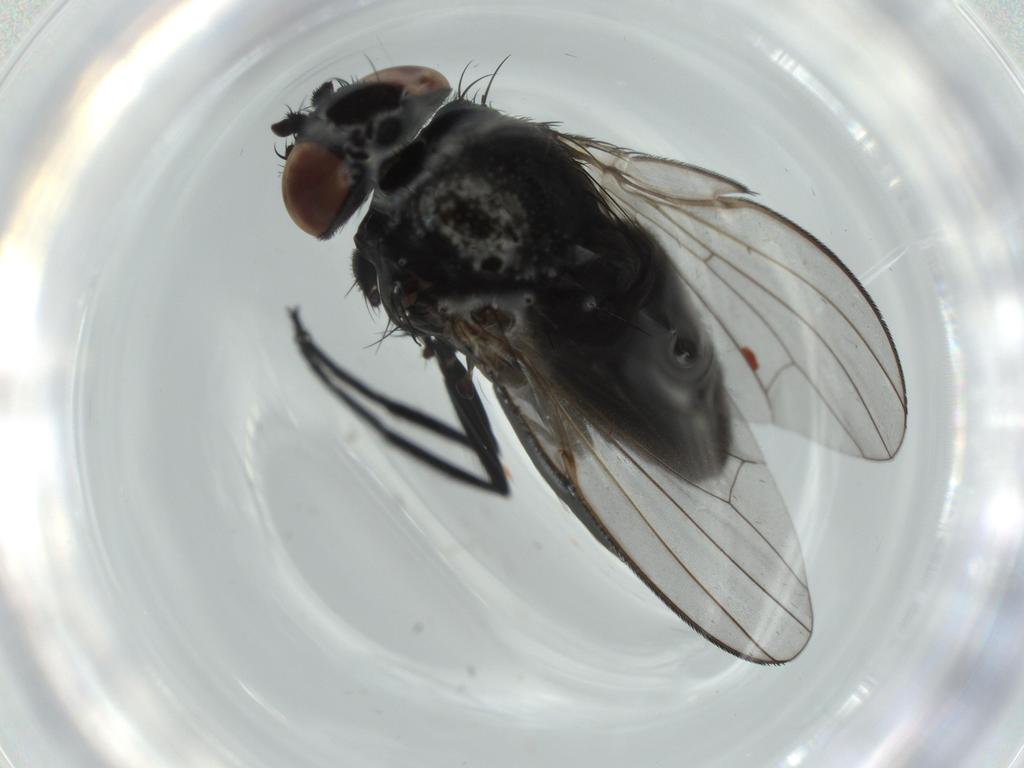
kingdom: Animalia
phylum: Arthropoda
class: Insecta
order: Diptera
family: Milichiidae
